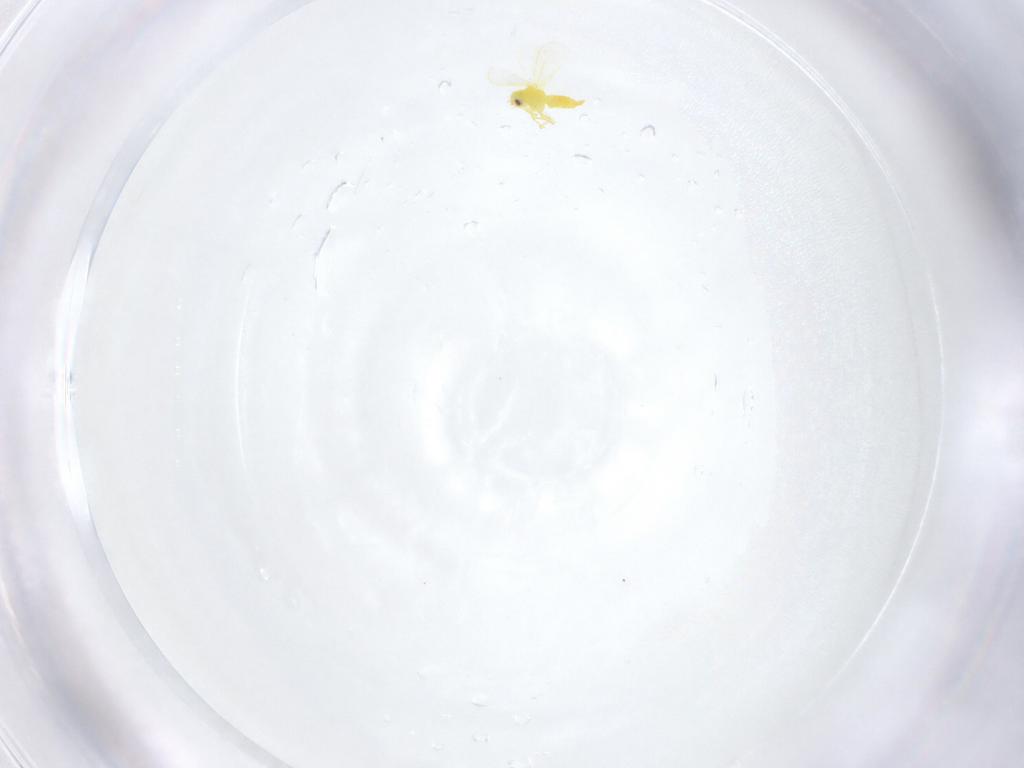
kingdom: Animalia
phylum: Arthropoda
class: Insecta
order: Hemiptera
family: Aleyrodidae
